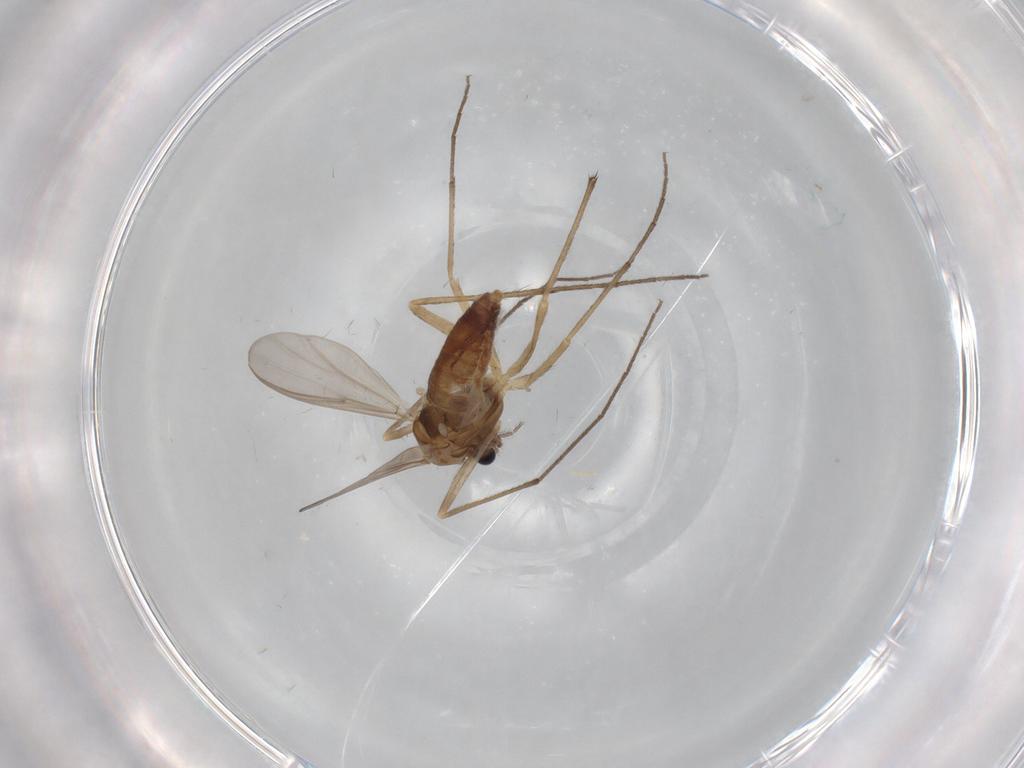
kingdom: Animalia
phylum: Arthropoda
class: Insecta
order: Diptera
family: Chironomidae
